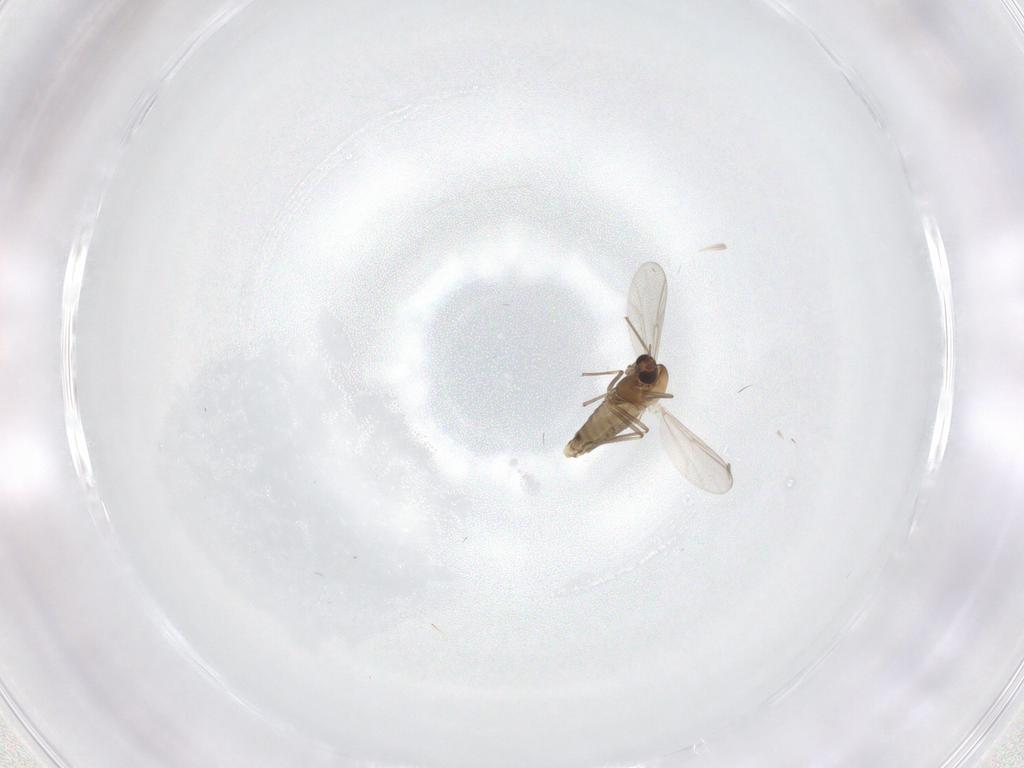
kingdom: Animalia
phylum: Arthropoda
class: Insecta
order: Diptera
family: Chironomidae
